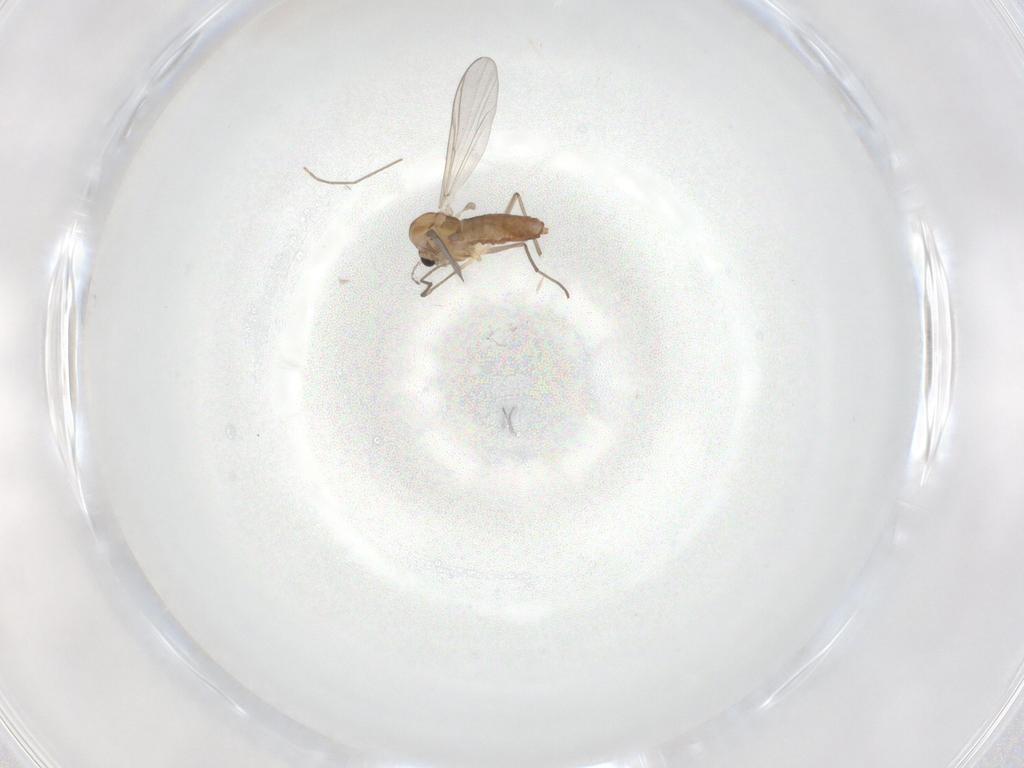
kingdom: Animalia
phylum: Arthropoda
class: Insecta
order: Diptera
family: Chironomidae
